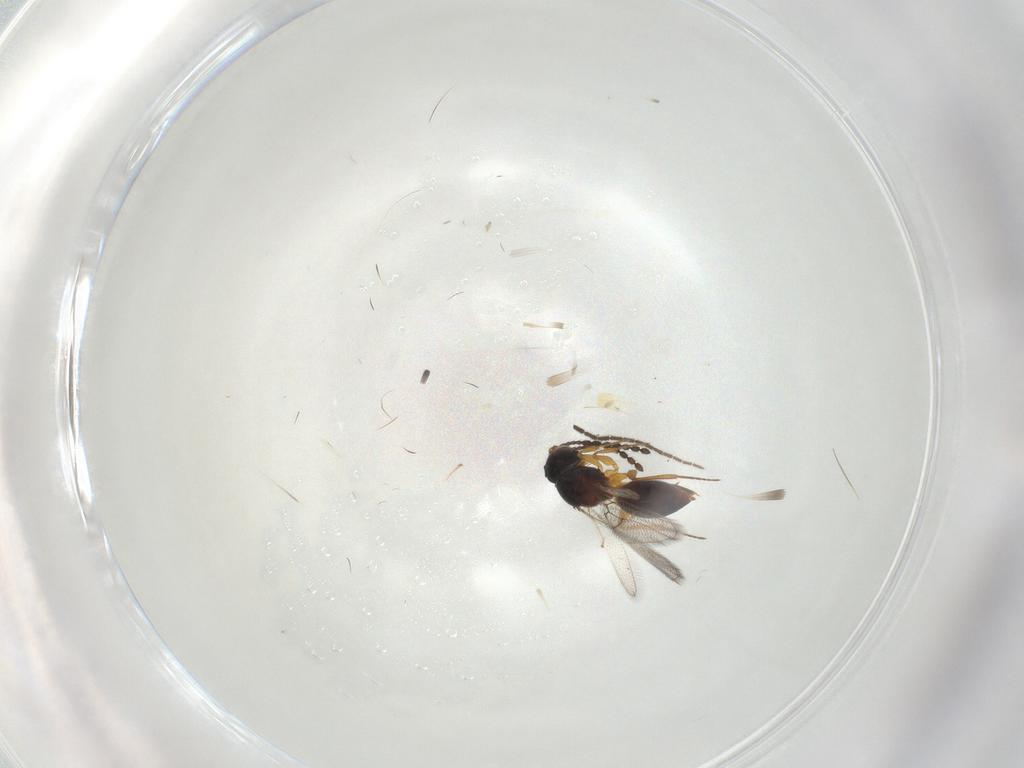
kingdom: Animalia
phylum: Arthropoda
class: Insecta
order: Hymenoptera
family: Figitidae
